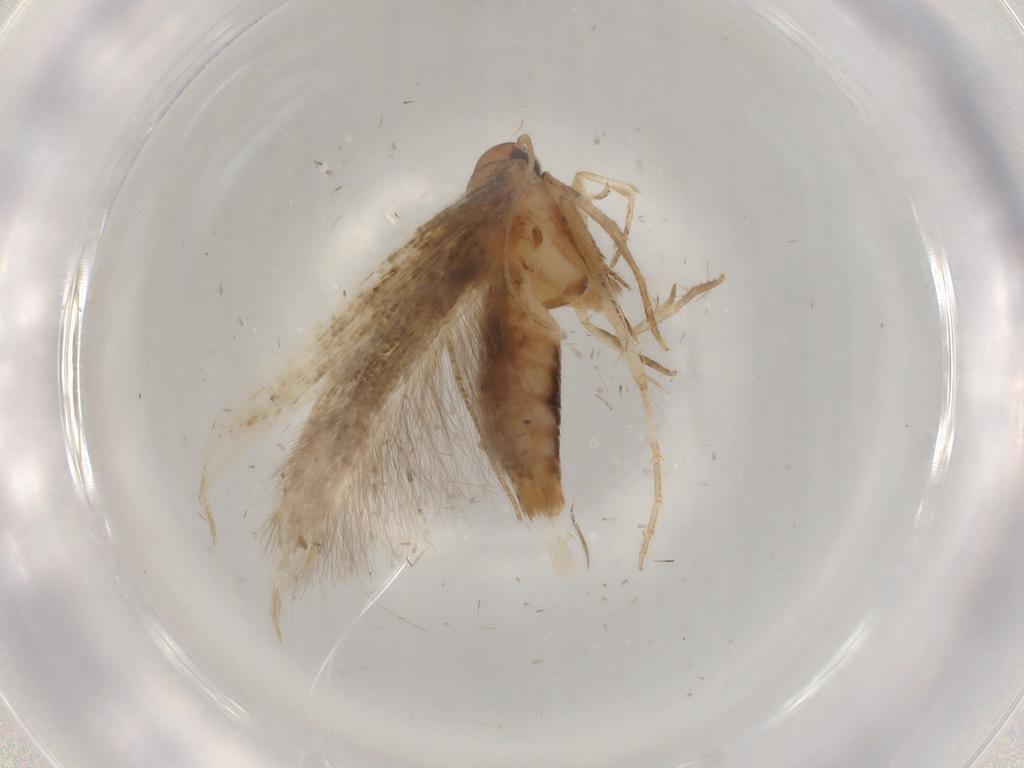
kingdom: Animalia
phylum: Arthropoda
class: Insecta
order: Lepidoptera
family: Cosmopterigidae
